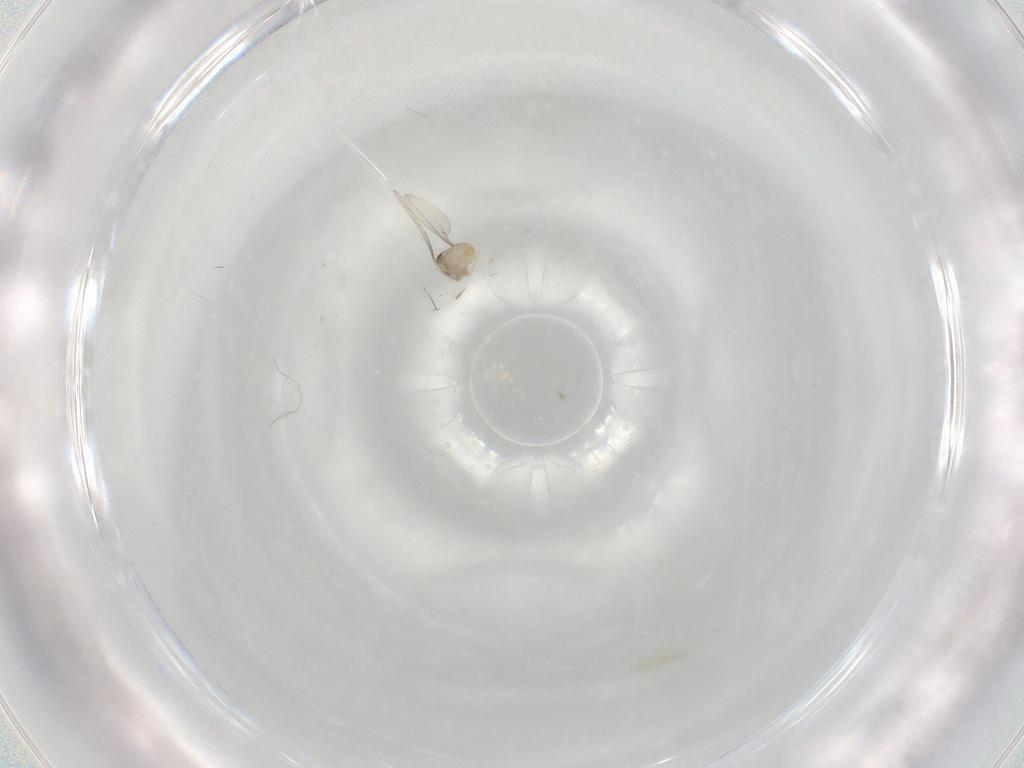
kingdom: Animalia
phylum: Arthropoda
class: Insecta
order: Diptera
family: Cecidomyiidae
